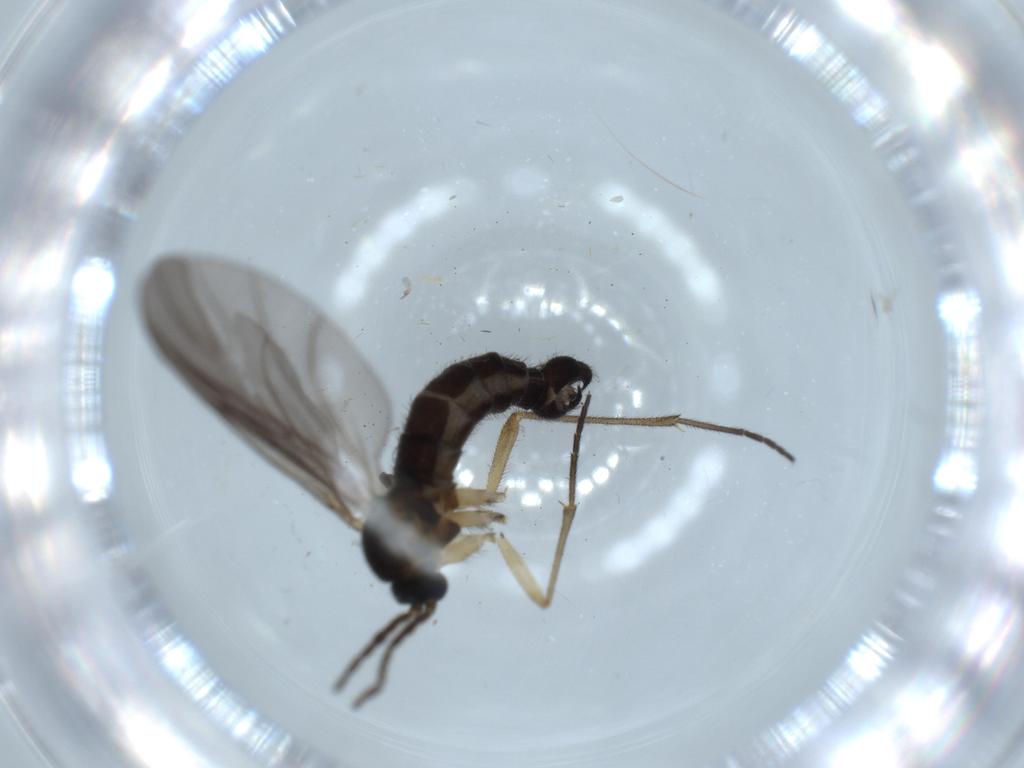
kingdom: Animalia
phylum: Arthropoda
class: Insecta
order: Diptera
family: Sciaridae
